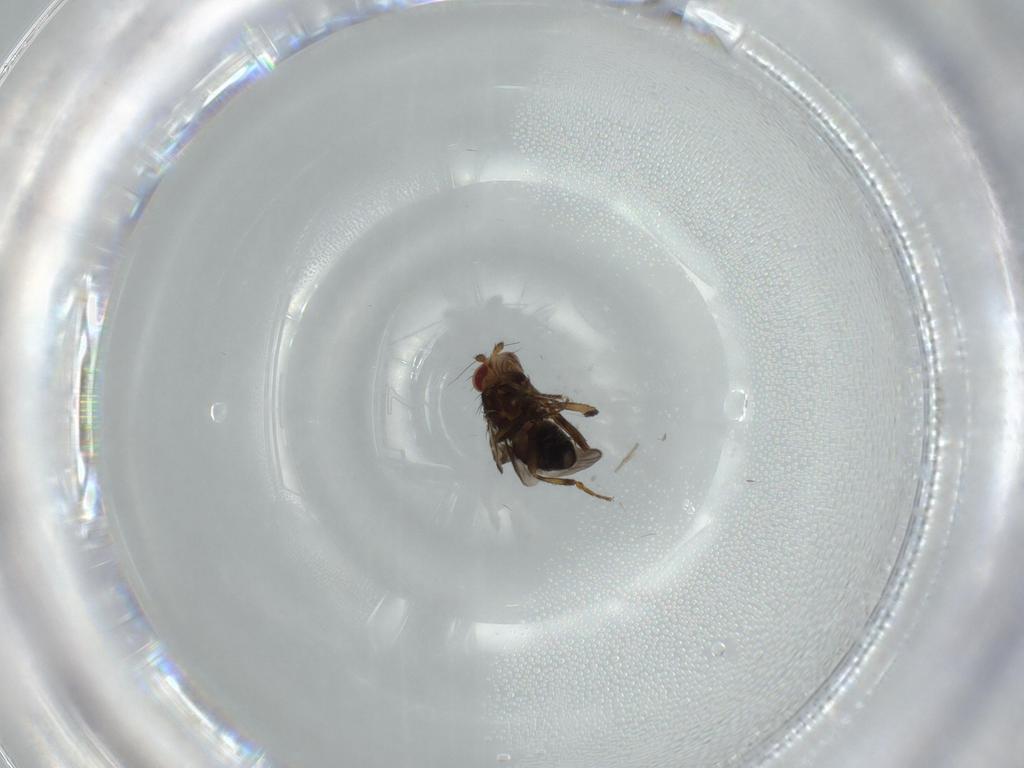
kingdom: Animalia
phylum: Arthropoda
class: Insecta
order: Diptera
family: Sphaeroceridae
